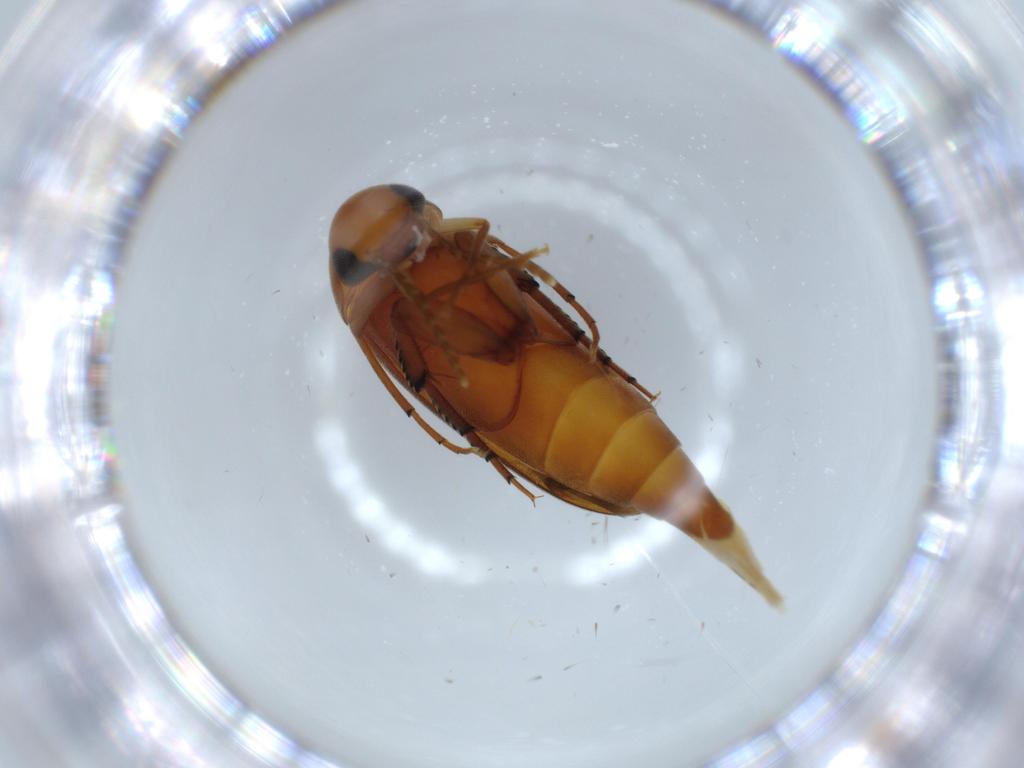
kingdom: Animalia
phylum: Arthropoda
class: Insecta
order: Coleoptera
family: Mordellidae
